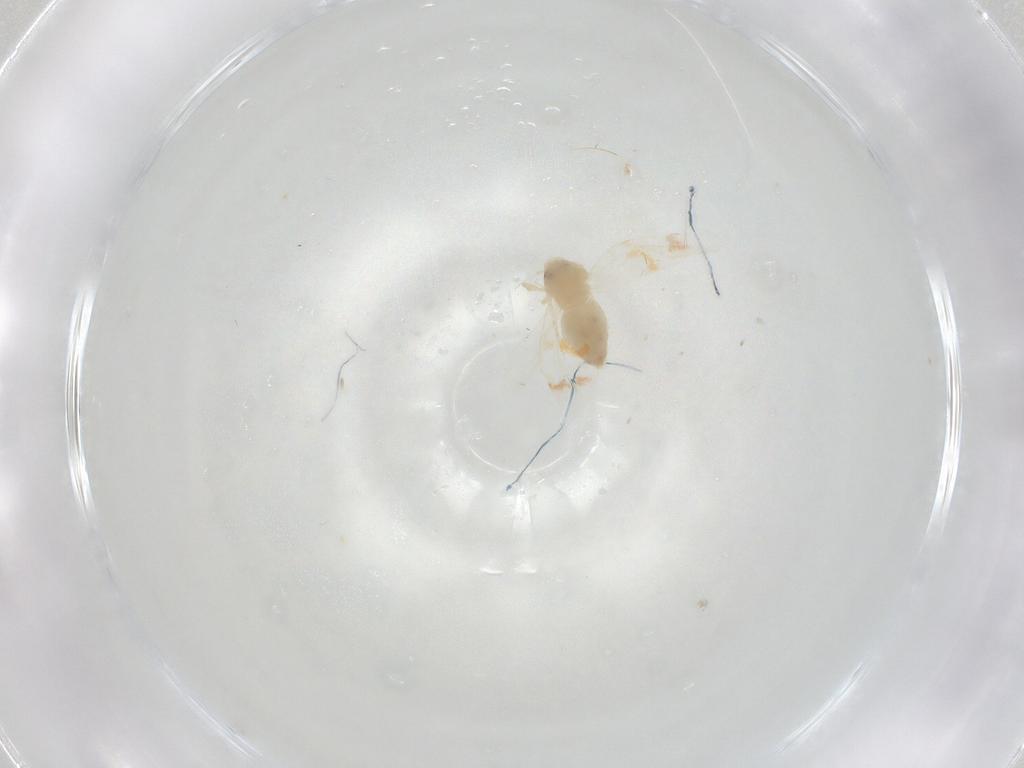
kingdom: Animalia
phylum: Arthropoda
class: Insecta
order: Hemiptera
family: Aleyrodidae
